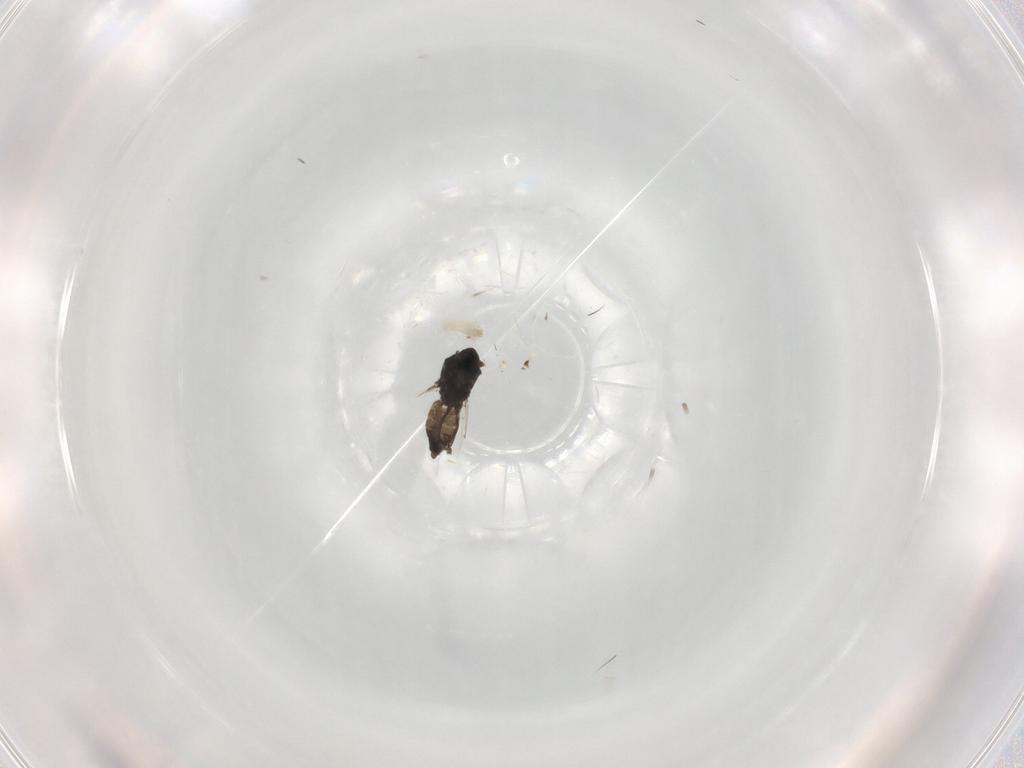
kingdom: Animalia
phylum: Arthropoda
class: Insecta
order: Diptera
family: Ceratopogonidae
